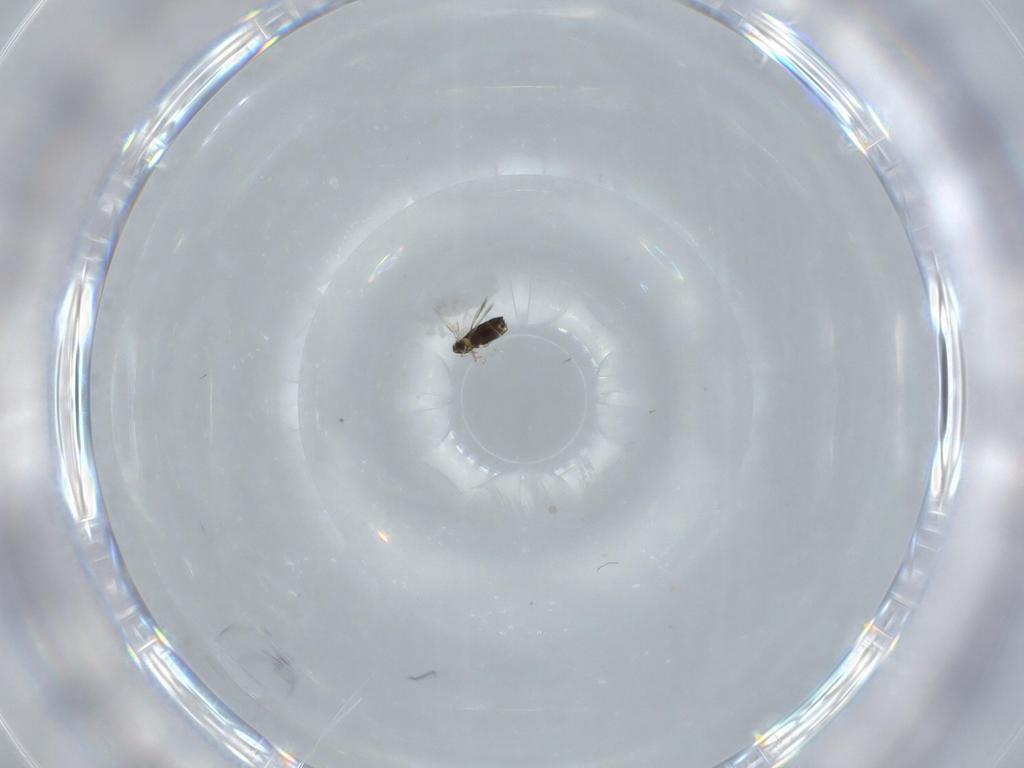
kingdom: Animalia
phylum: Arthropoda
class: Insecta
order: Hymenoptera
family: Signiphoridae
